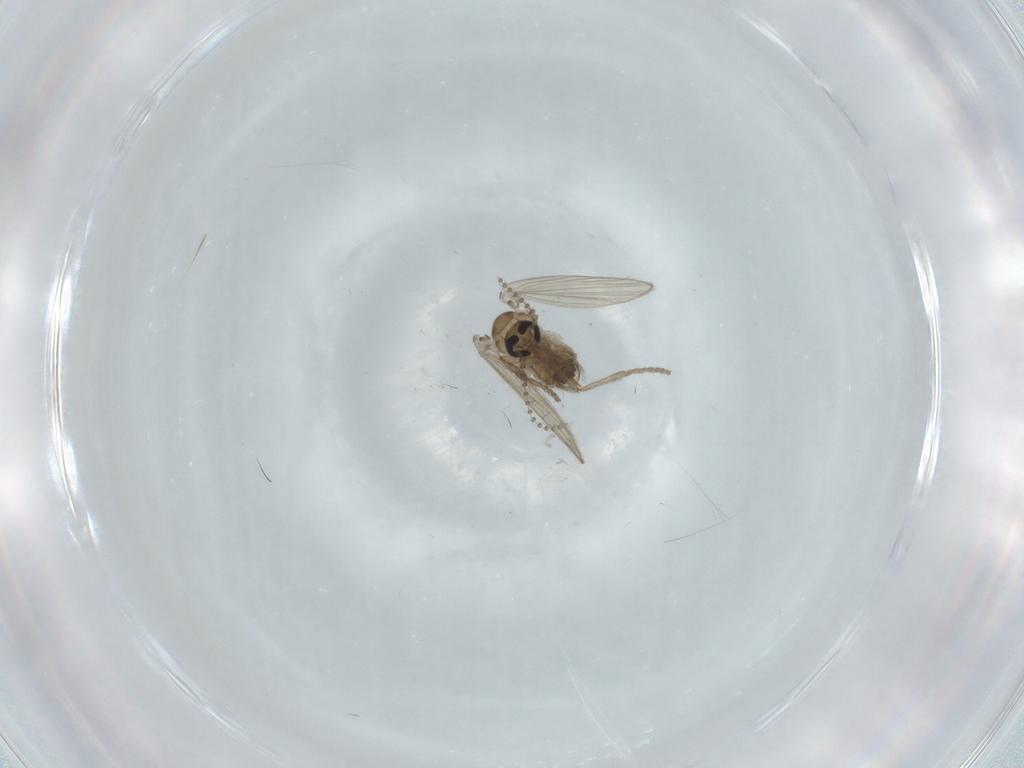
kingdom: Animalia
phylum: Arthropoda
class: Insecta
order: Diptera
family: Psychodidae
